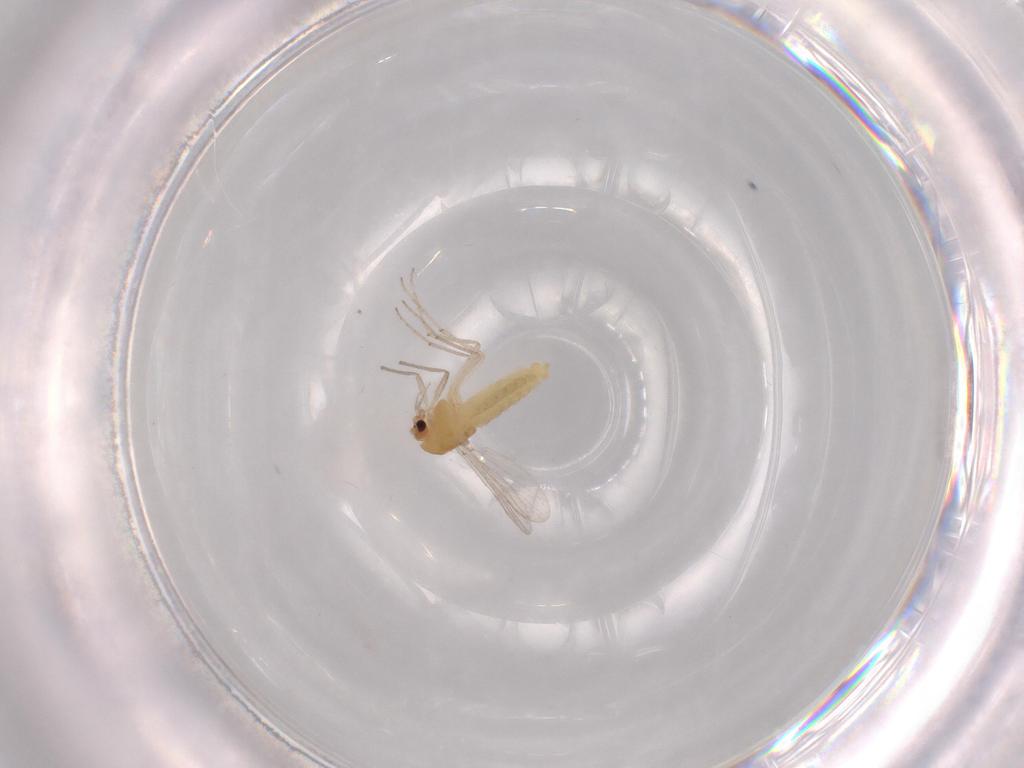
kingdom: Animalia
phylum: Arthropoda
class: Insecta
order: Diptera
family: Chironomidae
